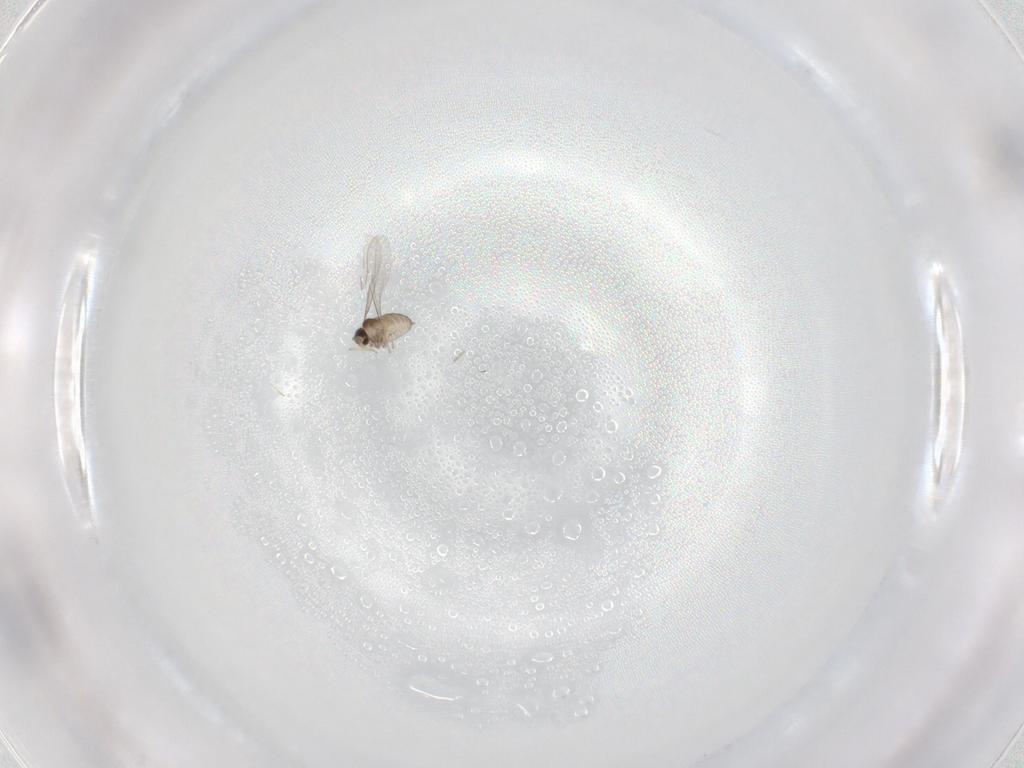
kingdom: Animalia
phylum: Arthropoda
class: Insecta
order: Diptera
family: Cecidomyiidae
